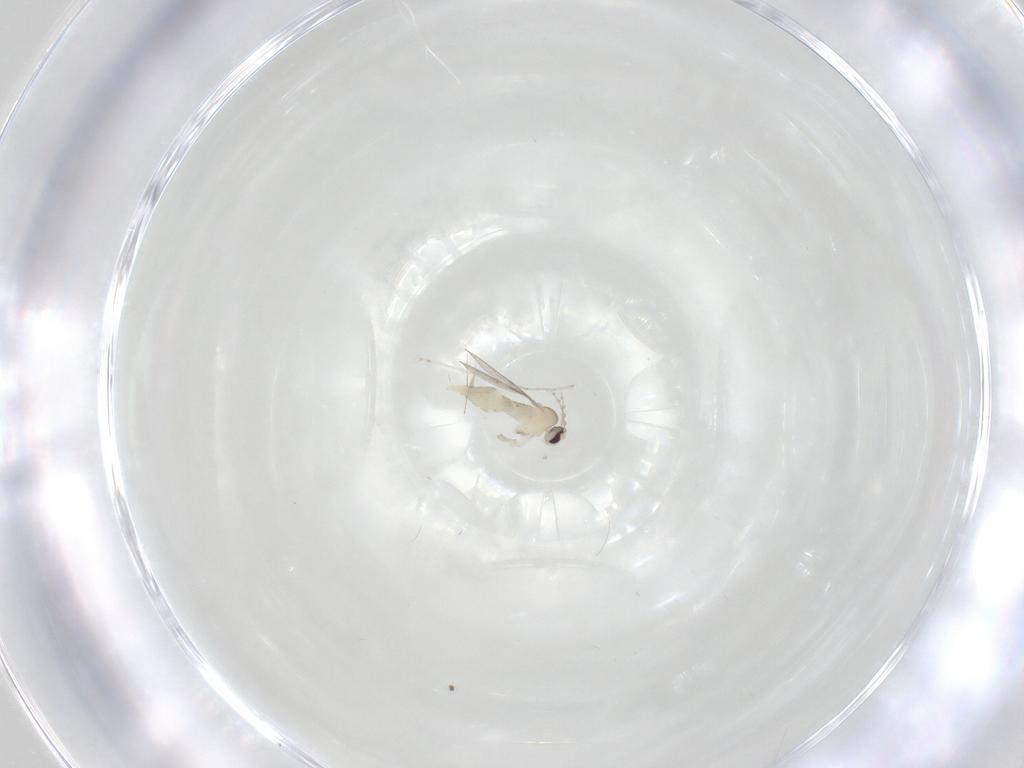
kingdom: Animalia
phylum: Arthropoda
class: Insecta
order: Diptera
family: Cecidomyiidae
